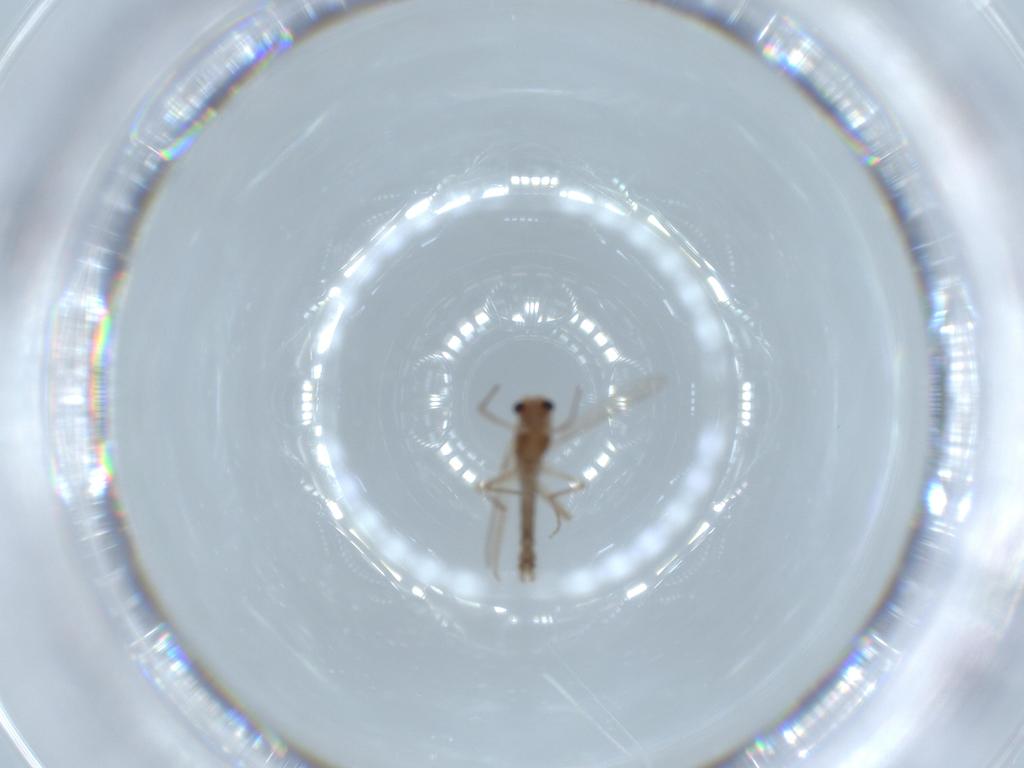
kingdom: Animalia
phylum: Arthropoda
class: Insecta
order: Diptera
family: Chironomidae
